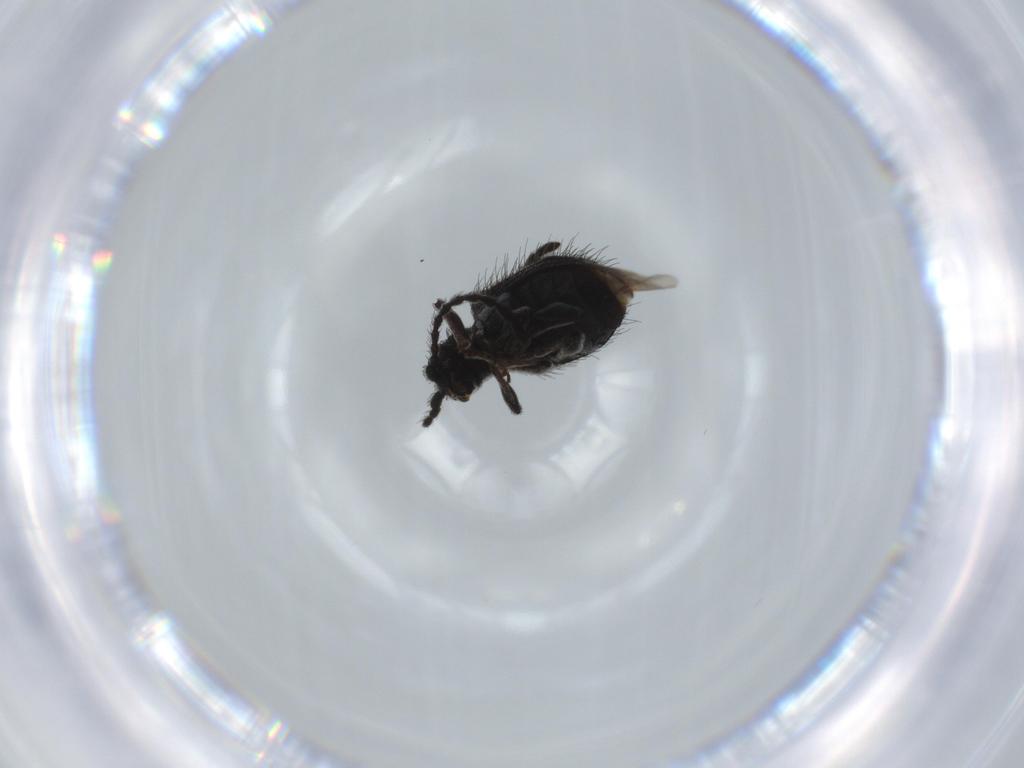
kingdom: Animalia
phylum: Arthropoda
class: Insecta
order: Coleoptera
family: Ptinidae
